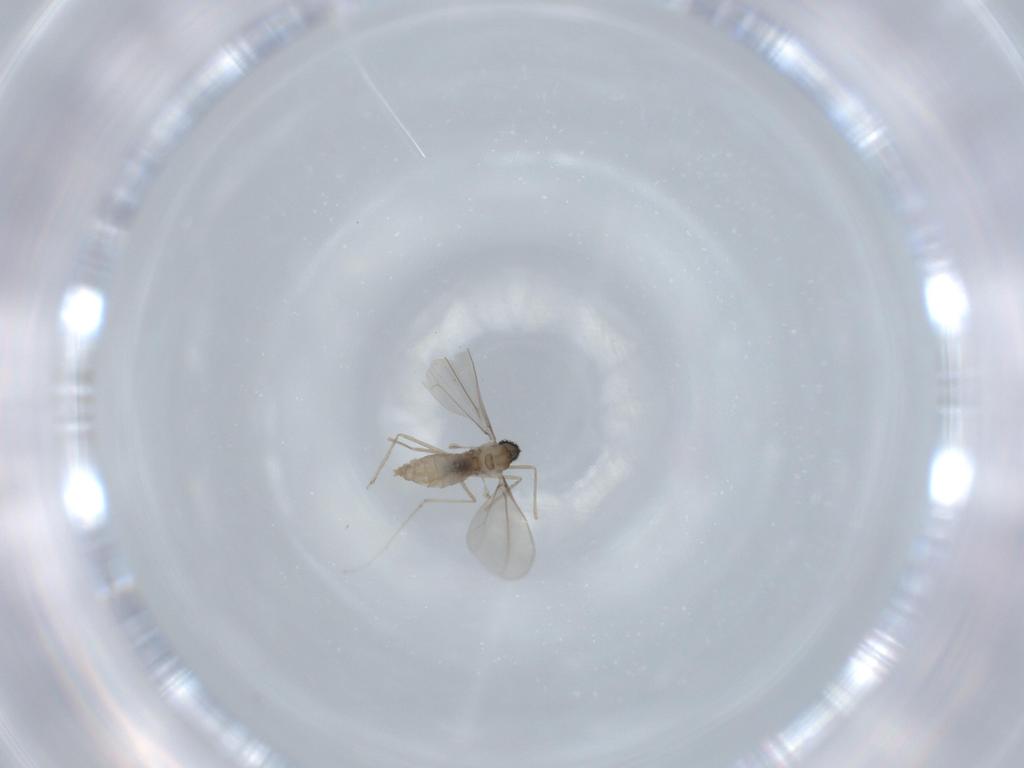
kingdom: Animalia
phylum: Arthropoda
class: Insecta
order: Diptera
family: Cecidomyiidae
